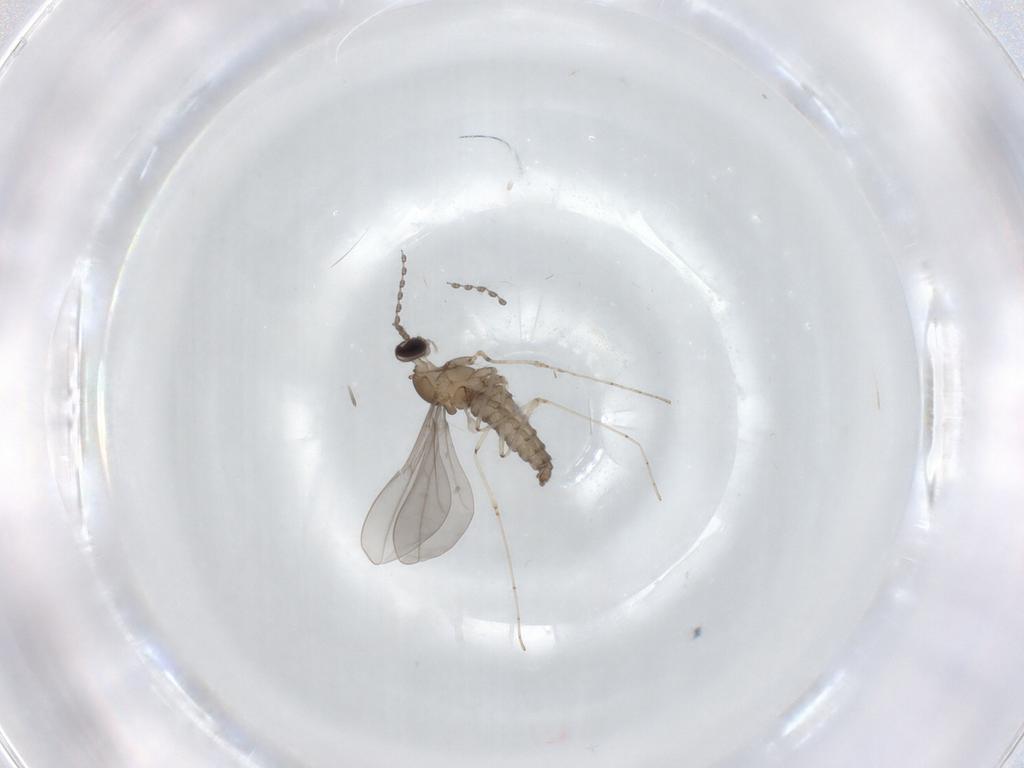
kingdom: Animalia
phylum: Arthropoda
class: Insecta
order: Diptera
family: Cecidomyiidae
